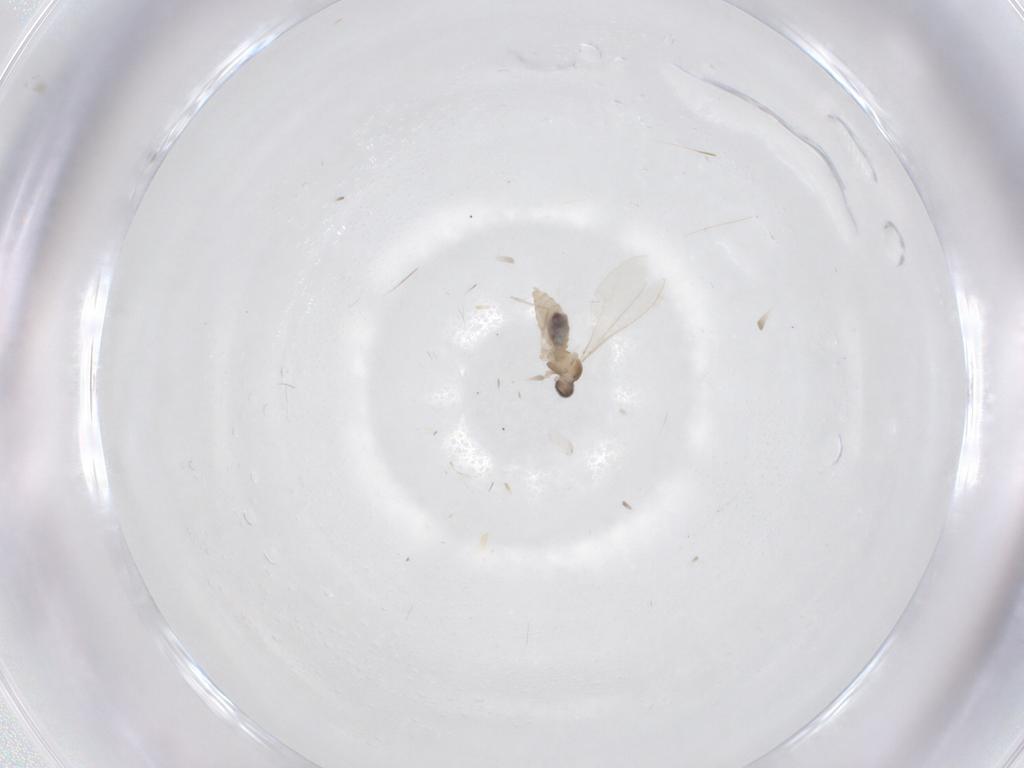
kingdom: Animalia
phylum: Arthropoda
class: Insecta
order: Diptera
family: Cecidomyiidae
